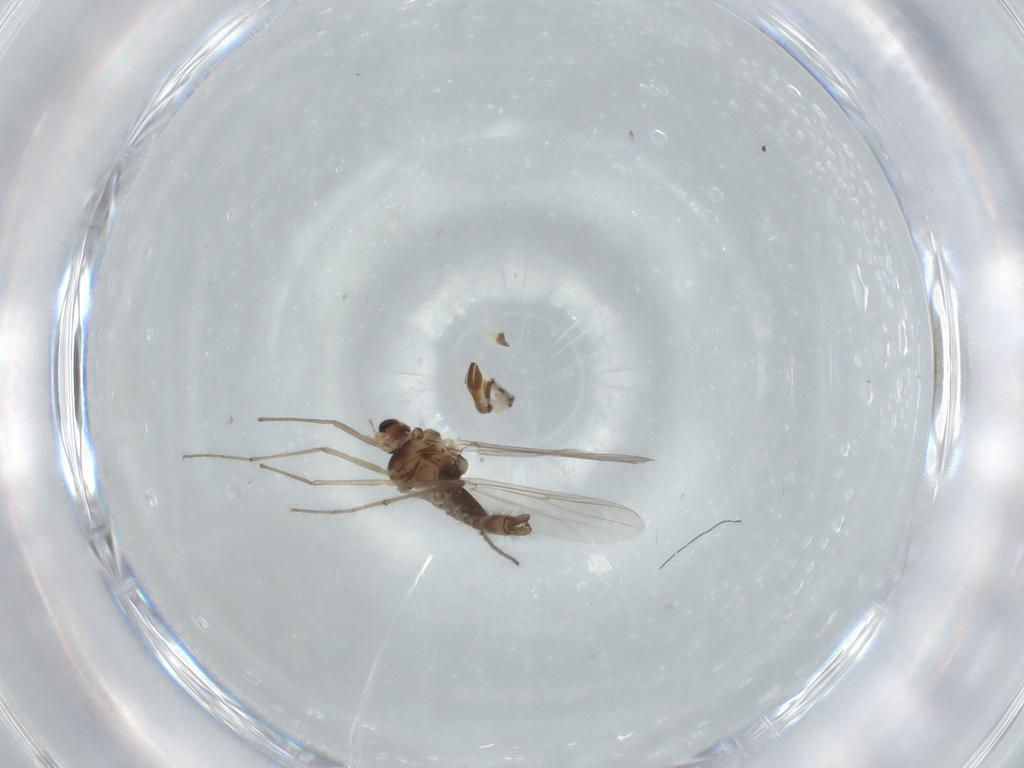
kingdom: Animalia
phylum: Arthropoda
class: Insecta
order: Diptera
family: Chironomidae
